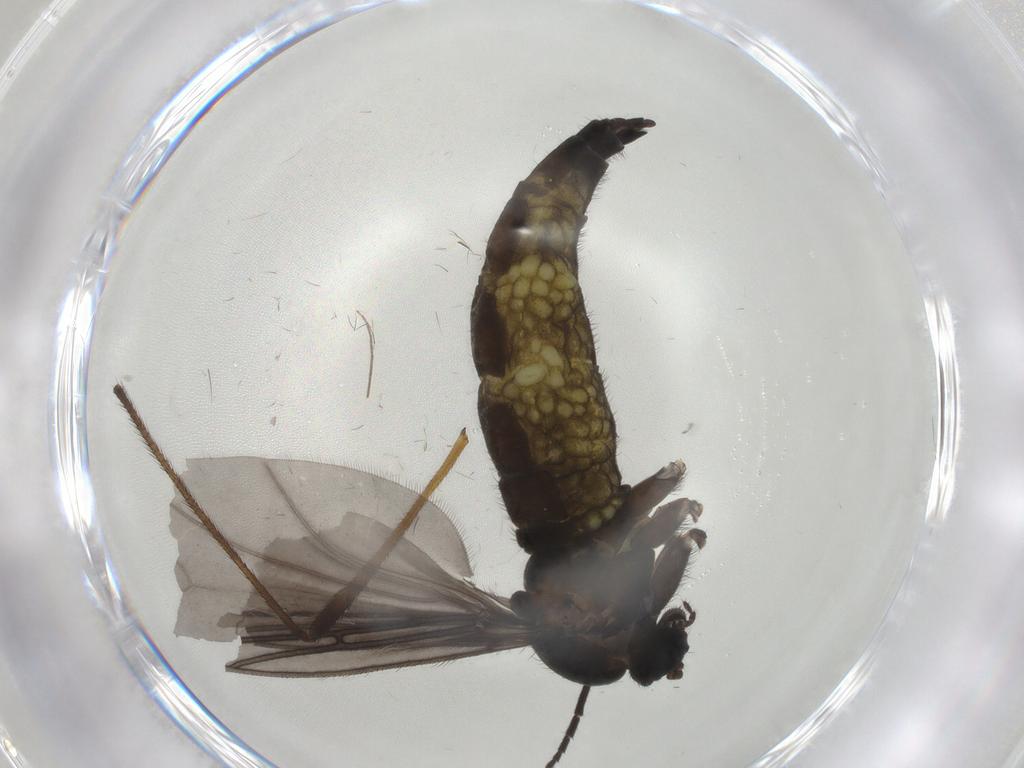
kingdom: Animalia
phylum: Arthropoda
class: Insecta
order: Diptera
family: Sciaridae
